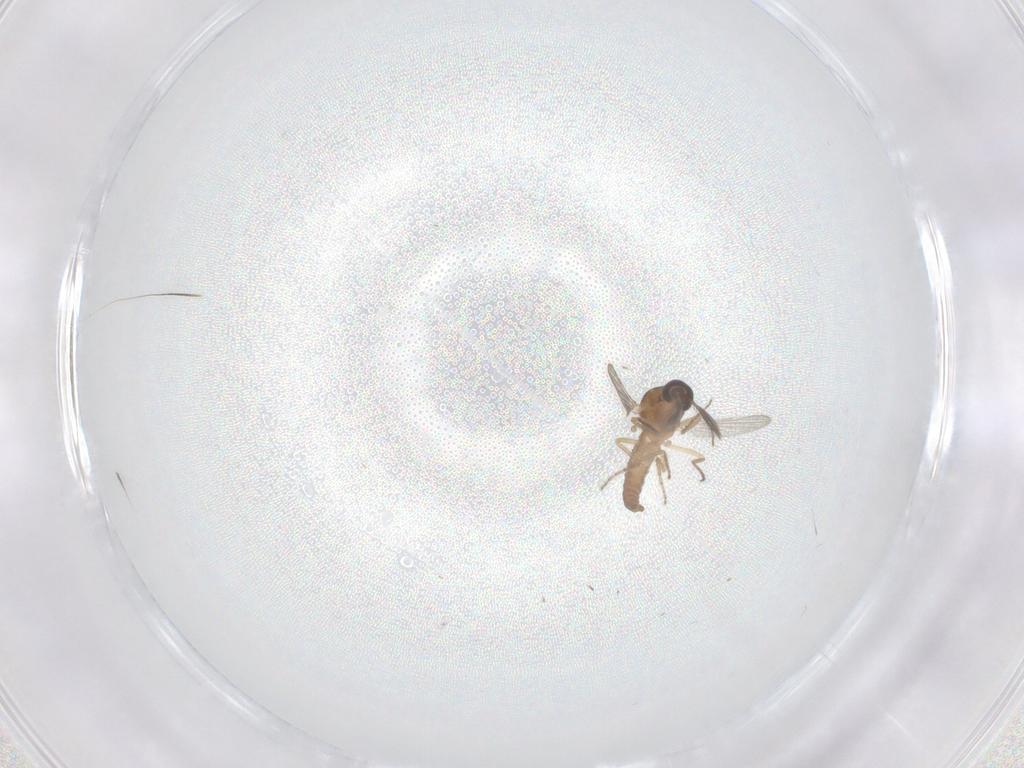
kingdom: Animalia
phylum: Arthropoda
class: Insecta
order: Diptera
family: Ceratopogonidae
